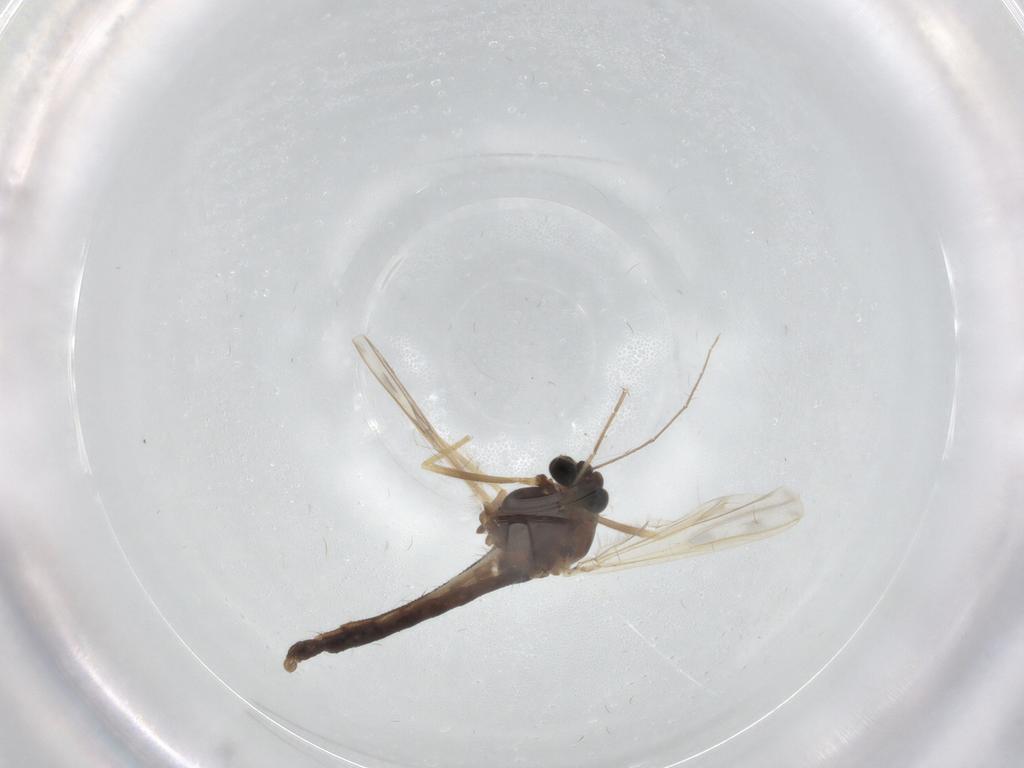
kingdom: Animalia
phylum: Arthropoda
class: Insecta
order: Diptera
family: Chironomidae
